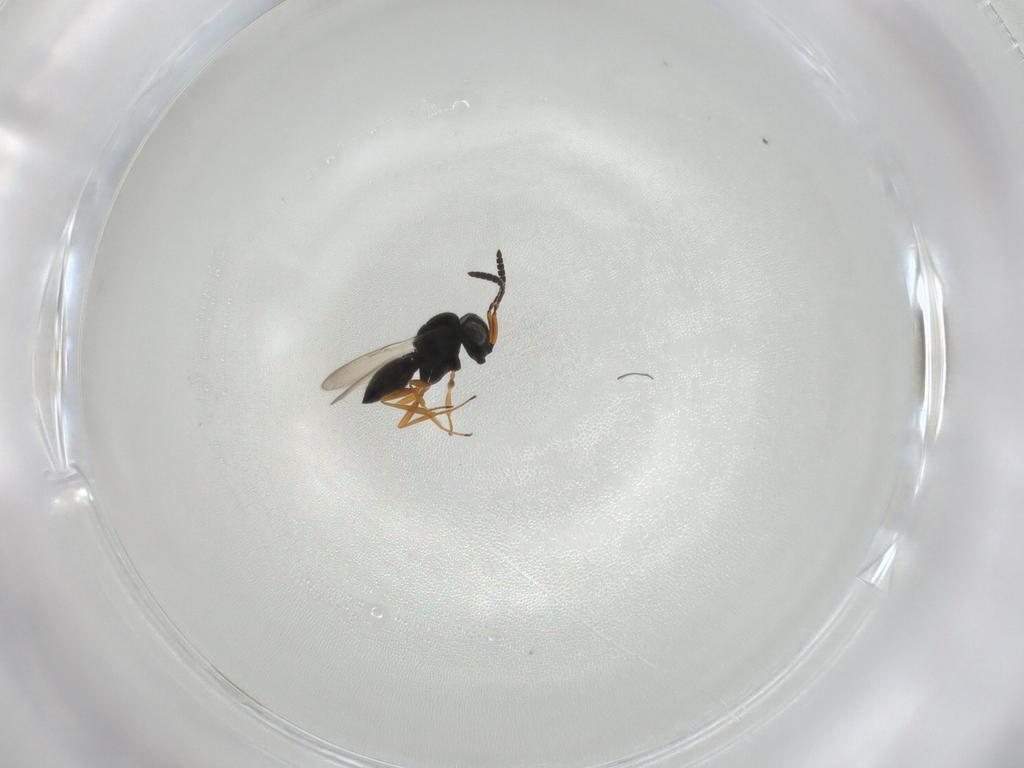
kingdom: Animalia
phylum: Arthropoda
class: Insecta
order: Hymenoptera
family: Scelionidae
